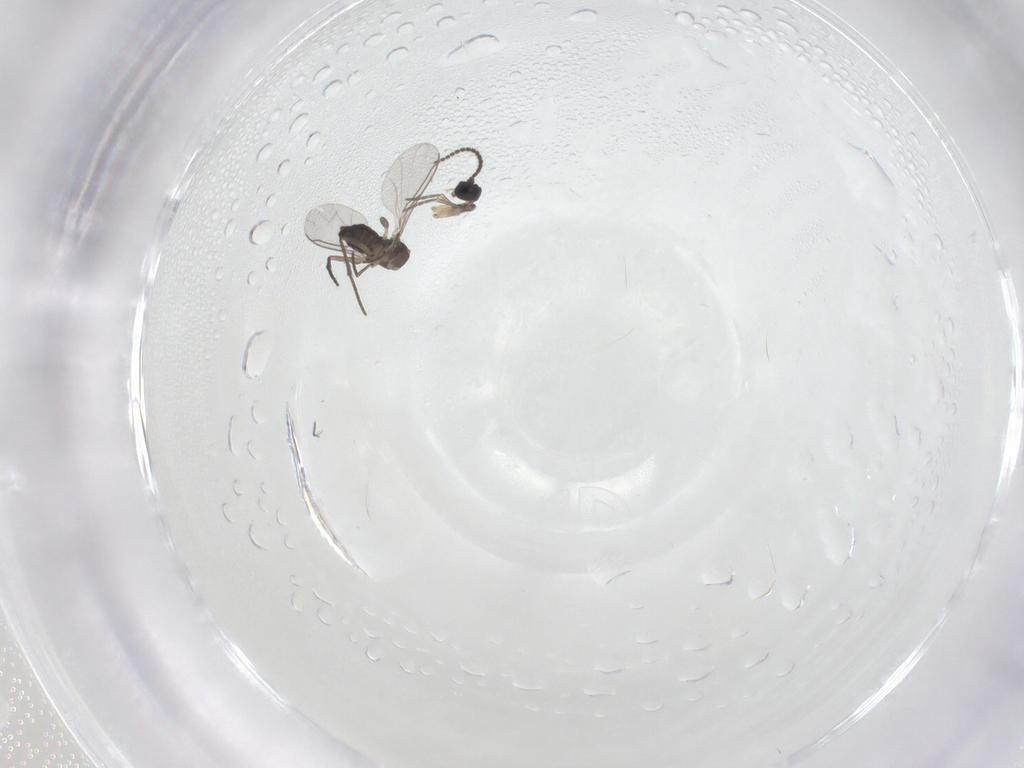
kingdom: Animalia
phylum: Arthropoda
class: Insecta
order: Diptera
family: Sciaridae
